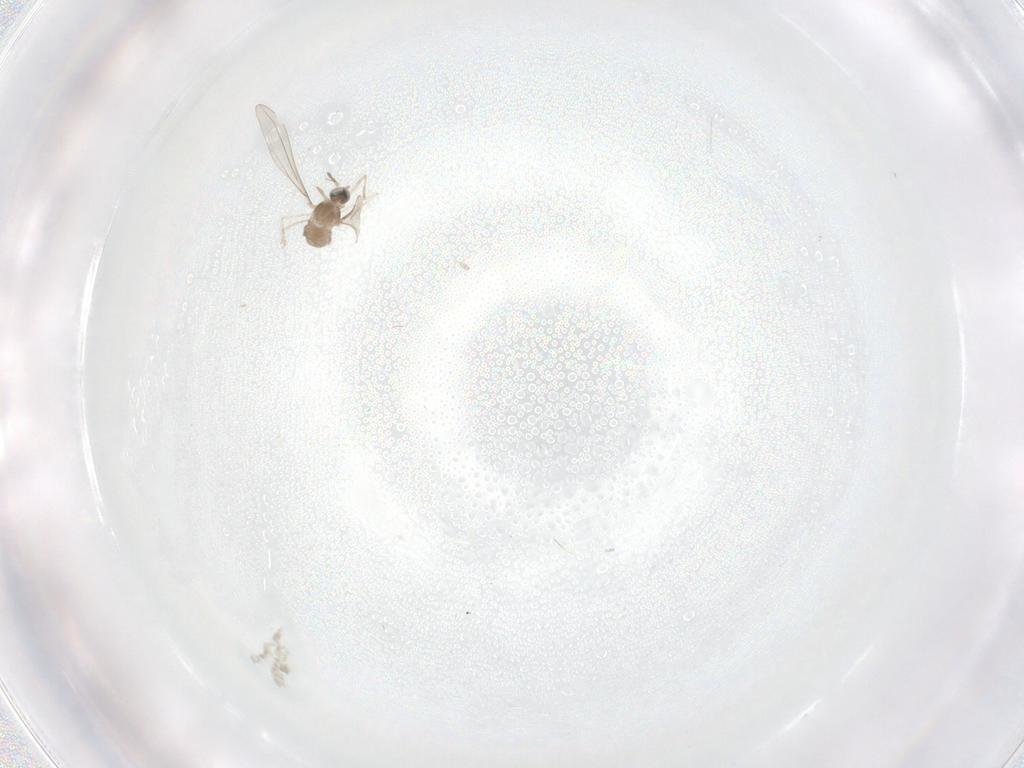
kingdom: Animalia
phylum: Arthropoda
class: Insecta
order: Diptera
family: Cecidomyiidae
